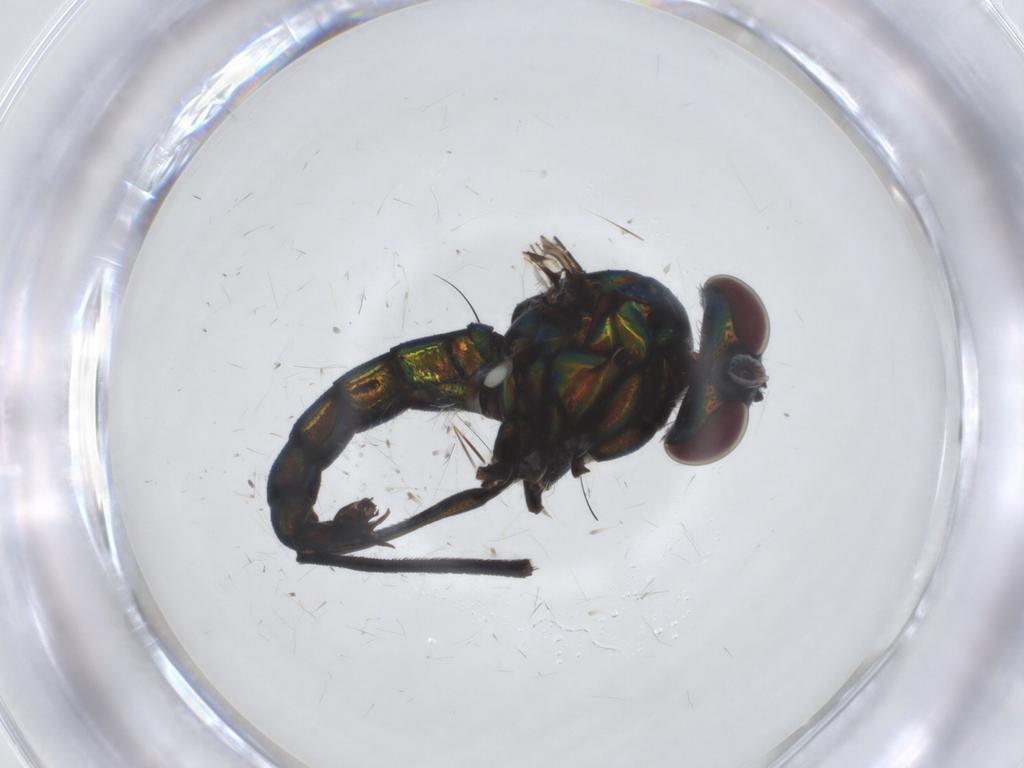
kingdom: Animalia
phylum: Arthropoda
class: Insecta
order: Diptera
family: Dolichopodidae
